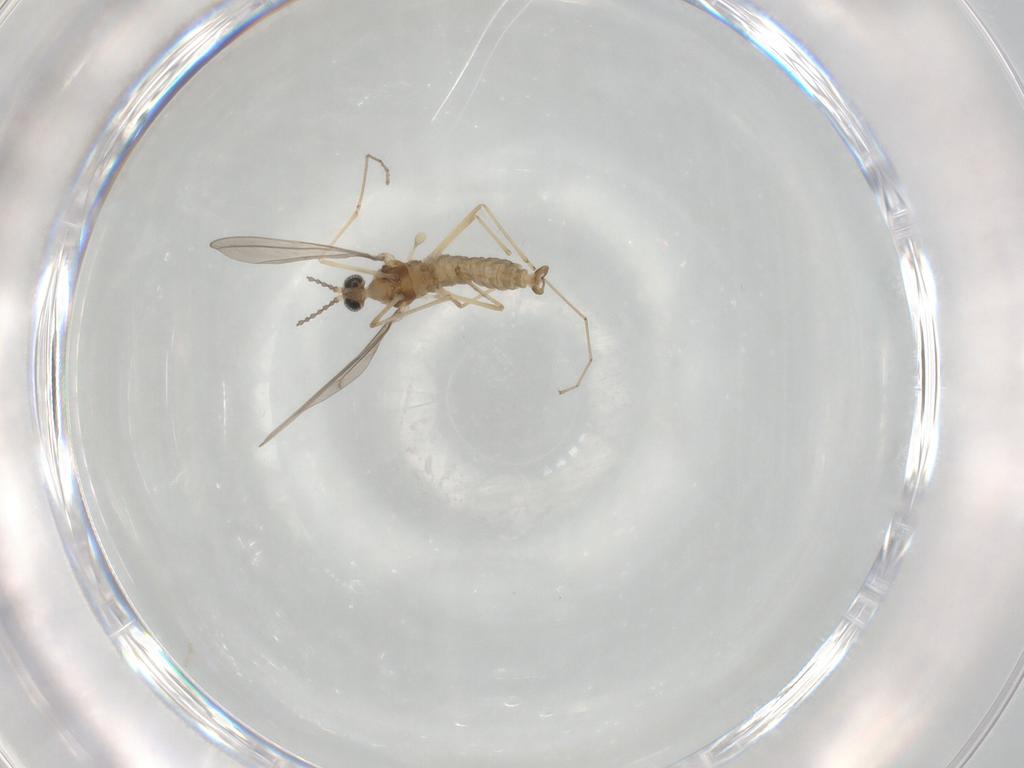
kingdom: Animalia
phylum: Arthropoda
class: Insecta
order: Diptera
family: Cecidomyiidae
